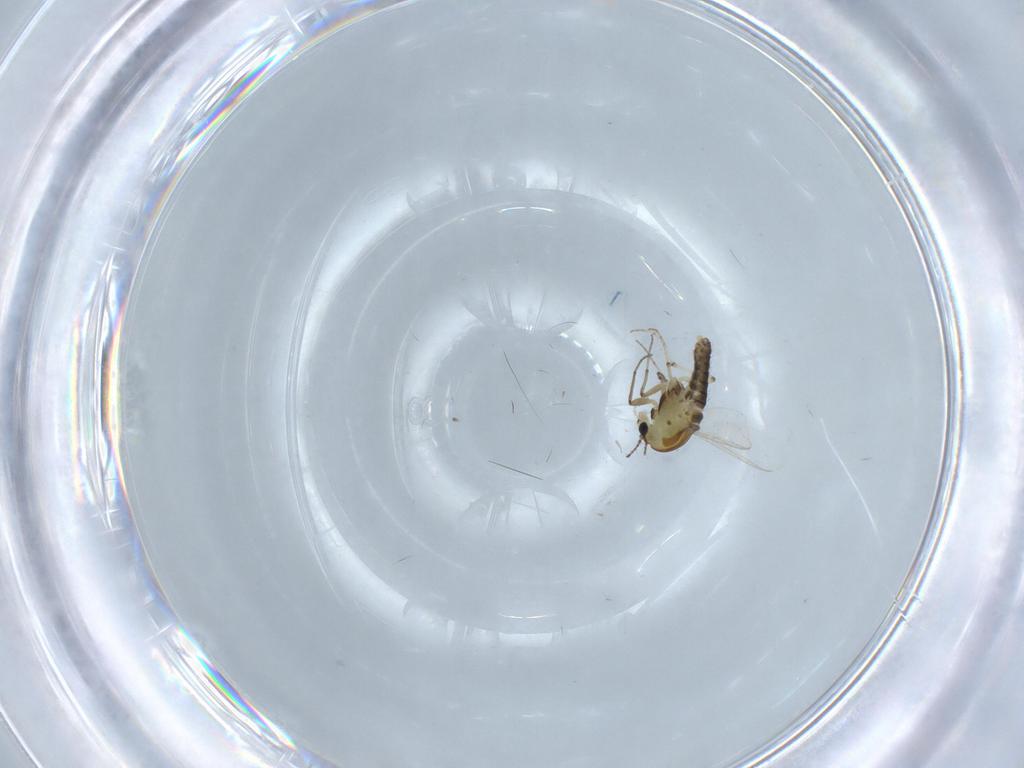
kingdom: Animalia
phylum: Arthropoda
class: Insecta
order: Diptera
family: Chironomidae
